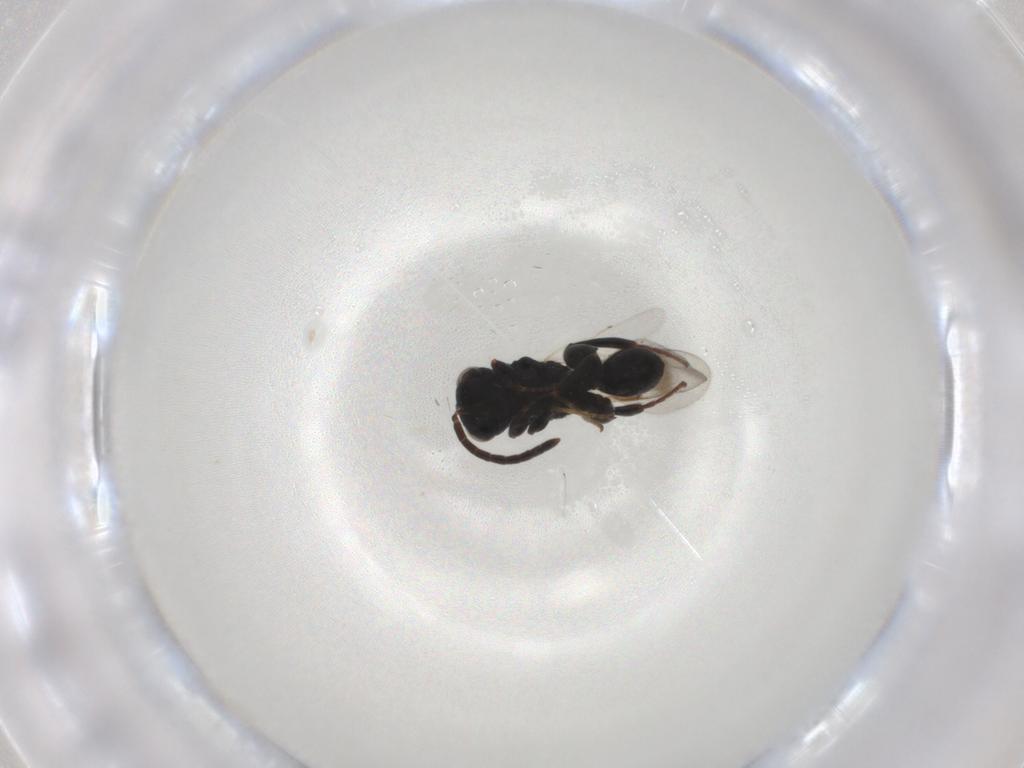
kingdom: Animalia
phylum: Arthropoda
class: Insecta
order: Hymenoptera
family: Chalcididae
